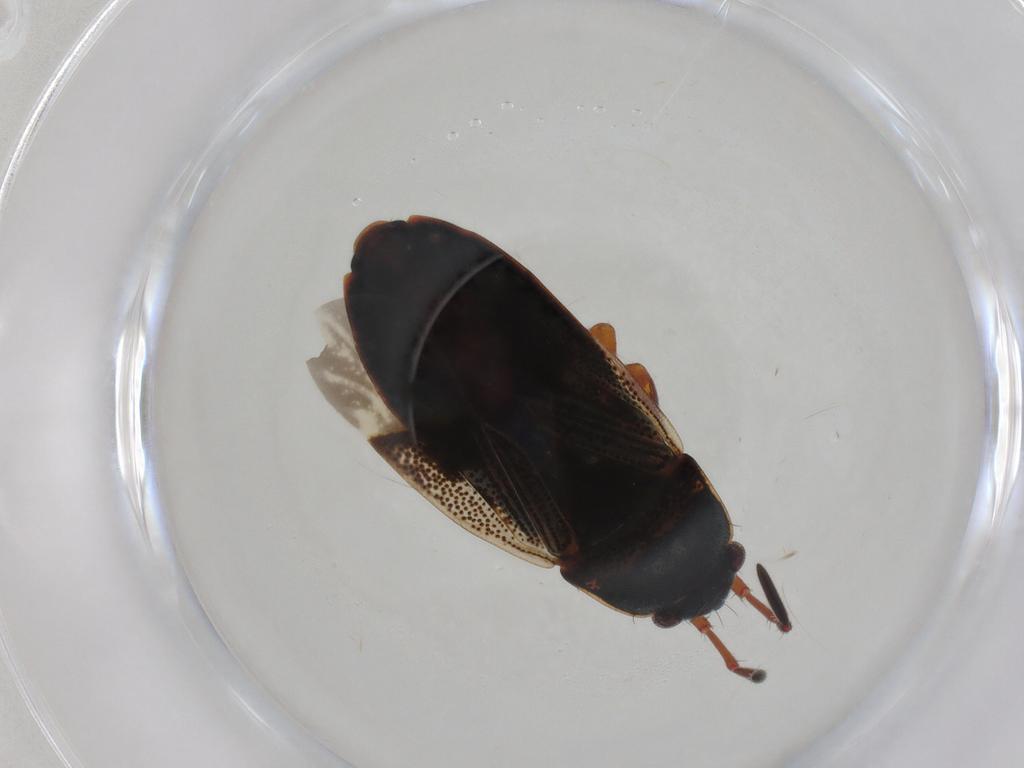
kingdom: Animalia
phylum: Arthropoda
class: Insecta
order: Hemiptera
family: Rhyparochromidae
